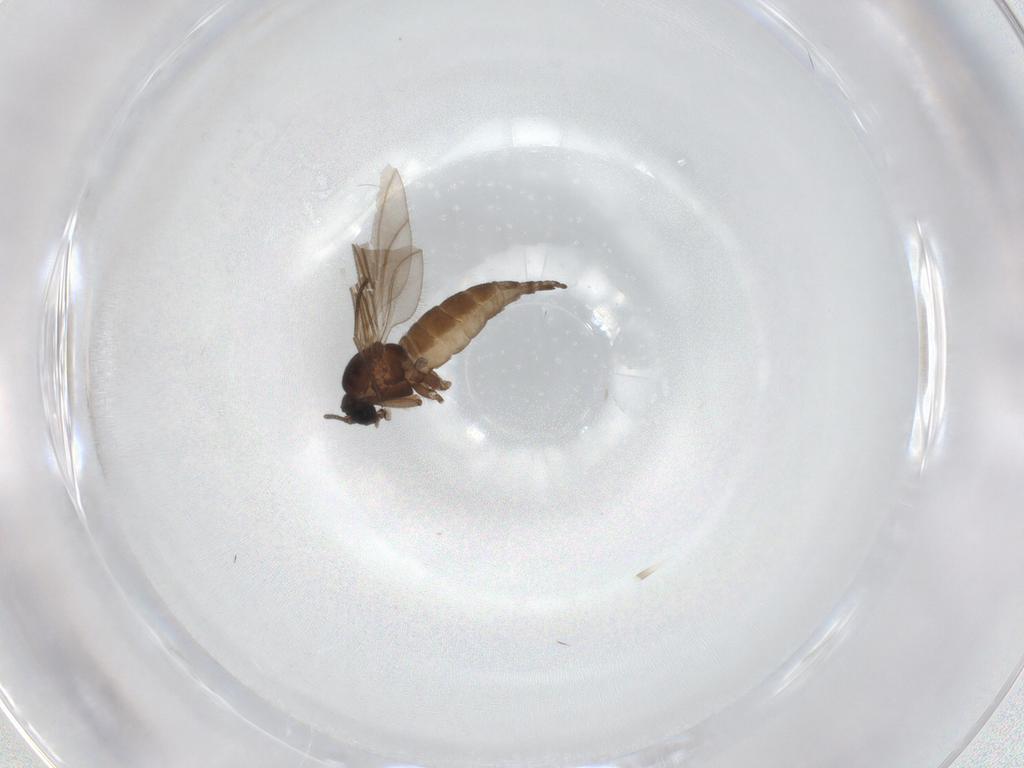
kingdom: Animalia
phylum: Arthropoda
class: Insecta
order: Diptera
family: Sciaridae
